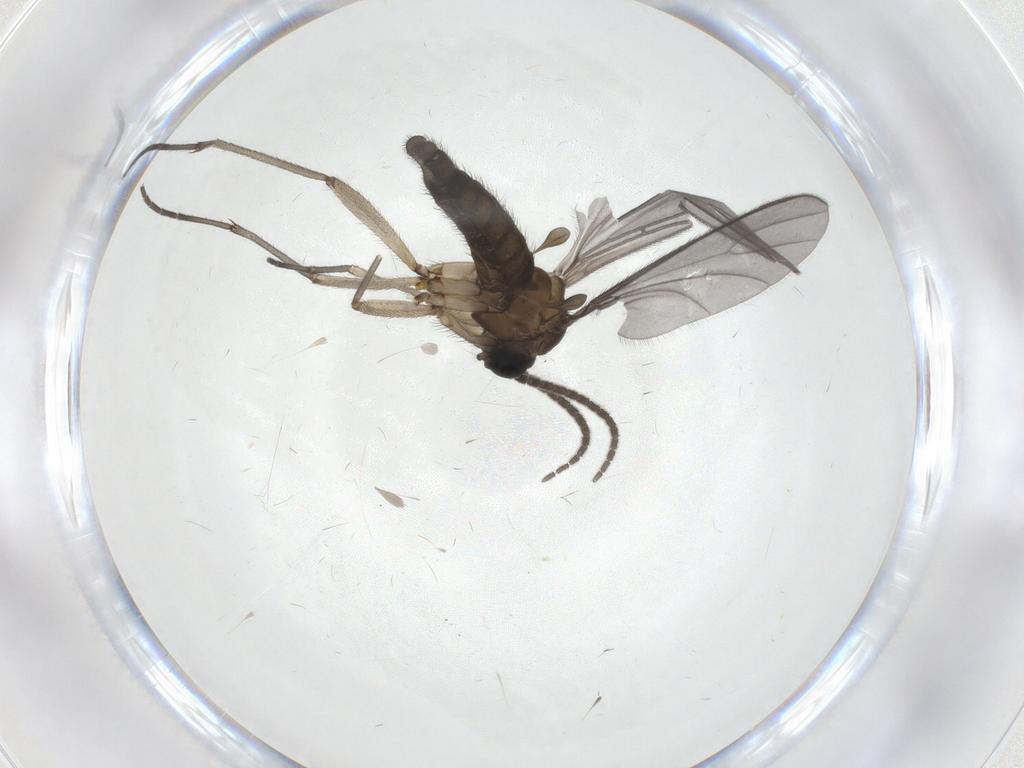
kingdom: Animalia
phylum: Arthropoda
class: Insecta
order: Diptera
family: Sciaridae
